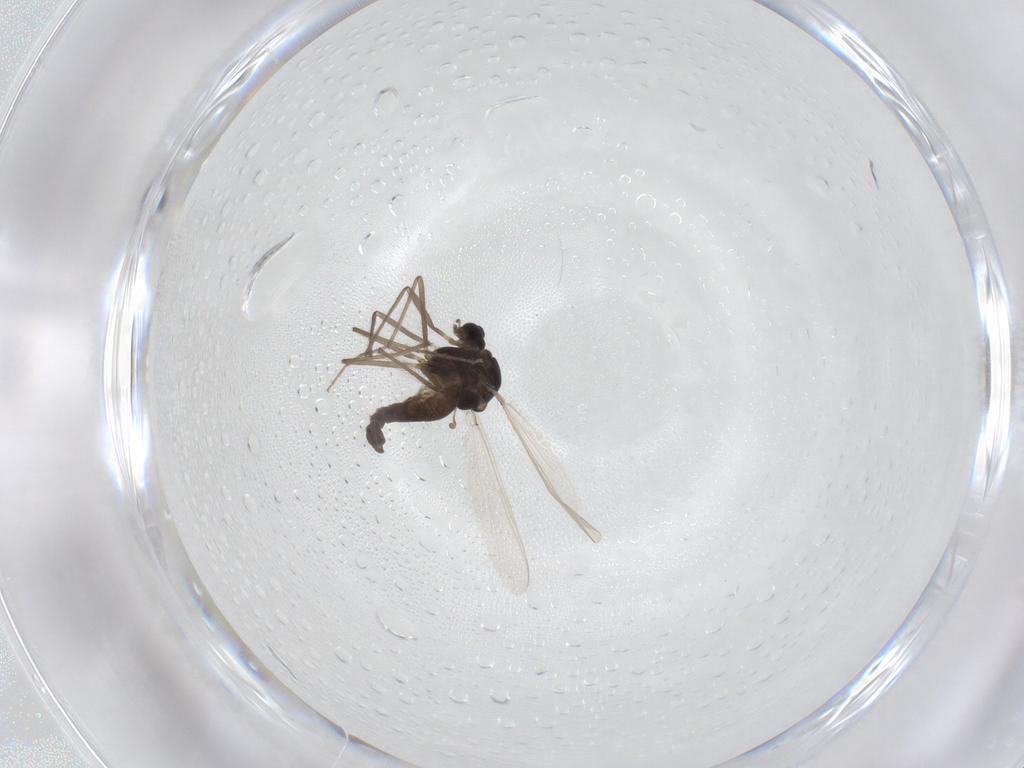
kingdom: Animalia
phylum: Arthropoda
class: Insecta
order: Diptera
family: Chironomidae
